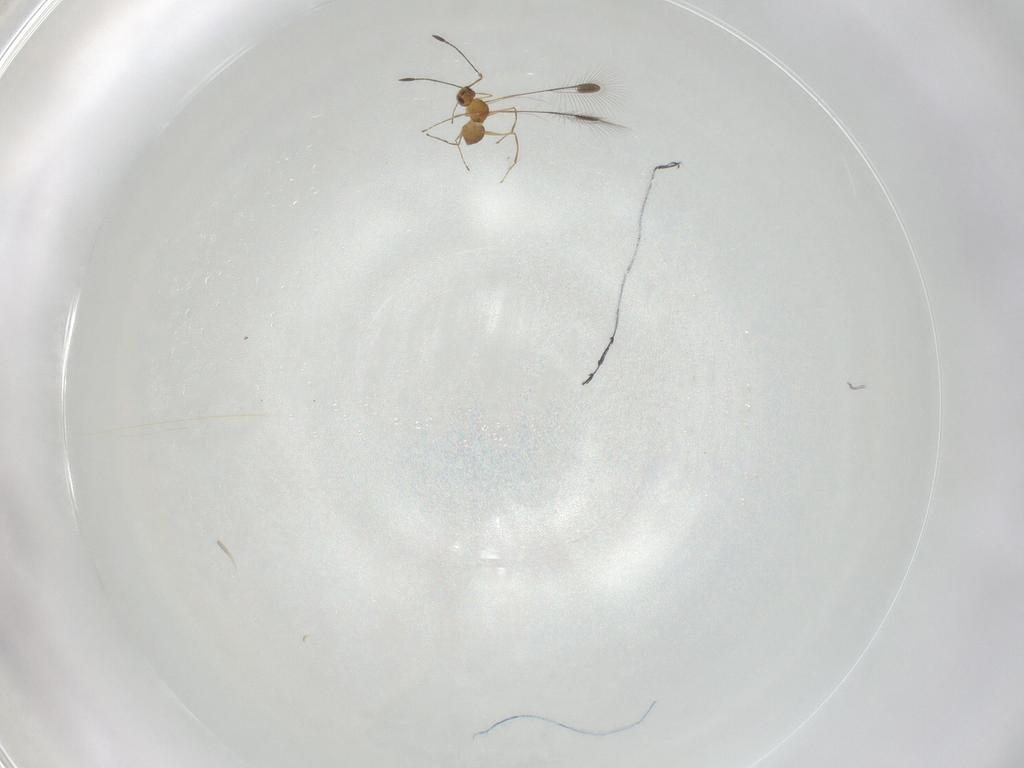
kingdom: Animalia
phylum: Arthropoda
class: Insecta
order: Hymenoptera
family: Mymaridae
